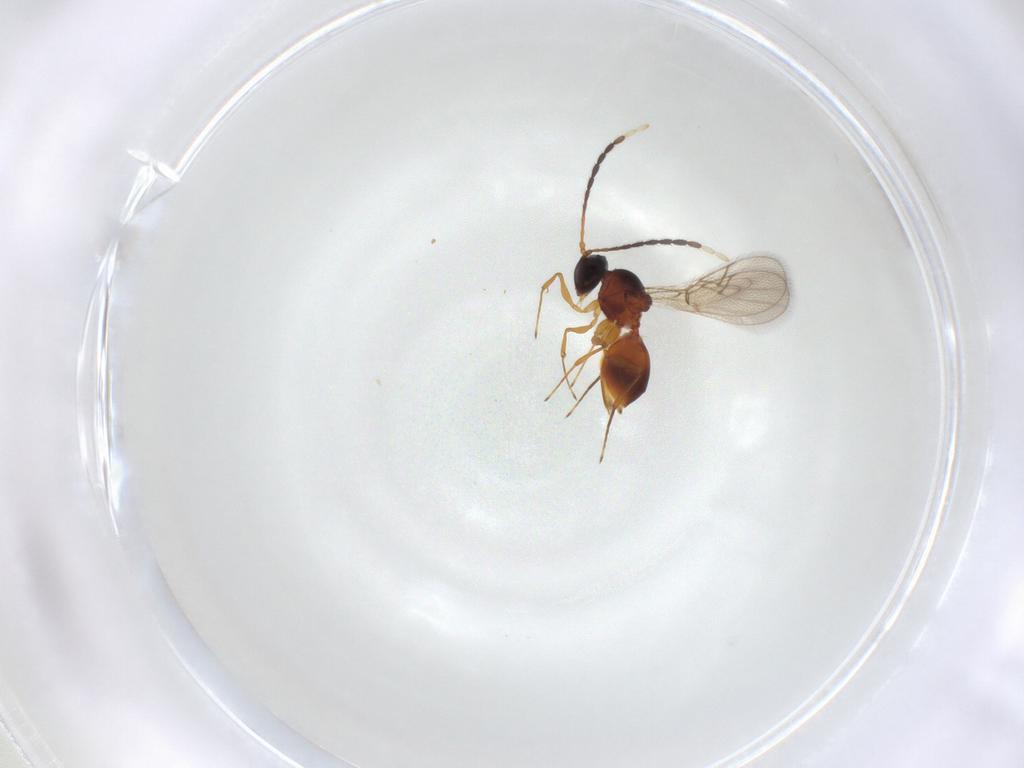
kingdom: Animalia
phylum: Arthropoda
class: Insecta
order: Hymenoptera
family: Figitidae
